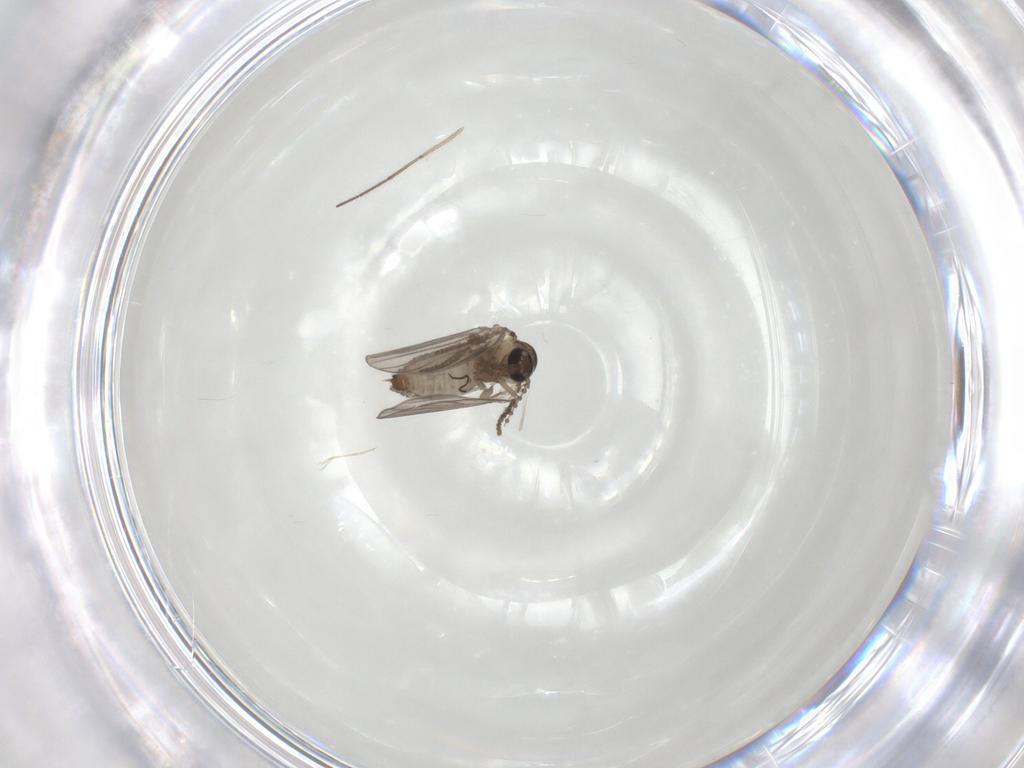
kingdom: Animalia
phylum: Arthropoda
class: Insecta
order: Diptera
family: Psychodidae
